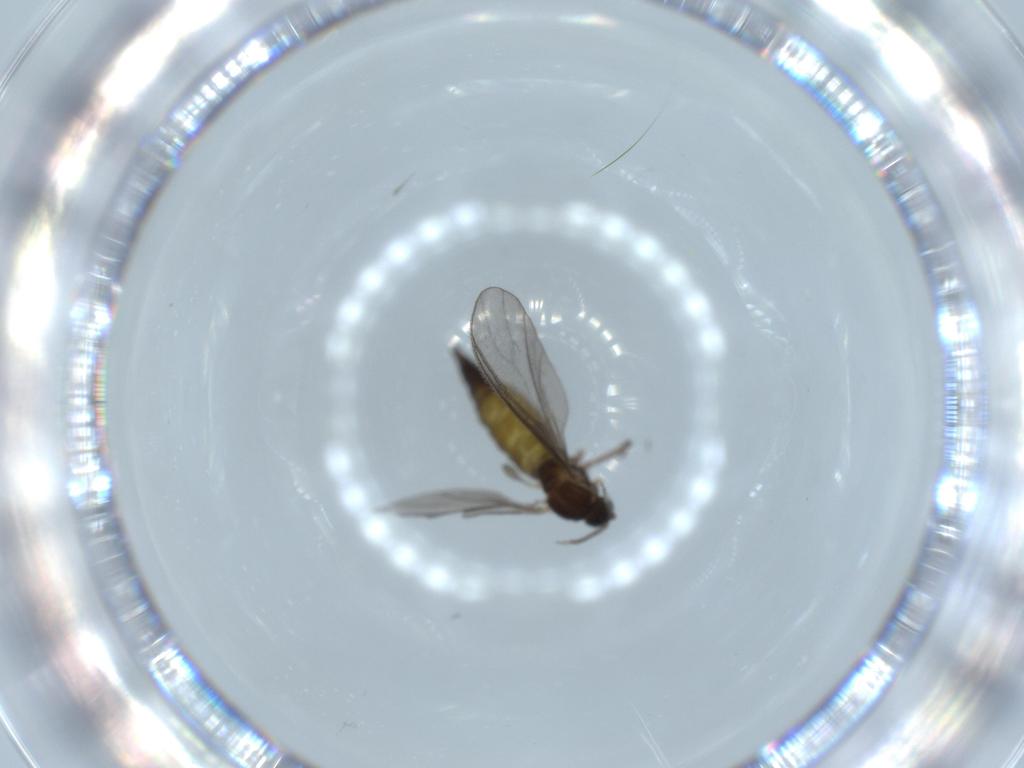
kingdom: Animalia
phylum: Arthropoda
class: Insecta
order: Diptera
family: Sciaridae
